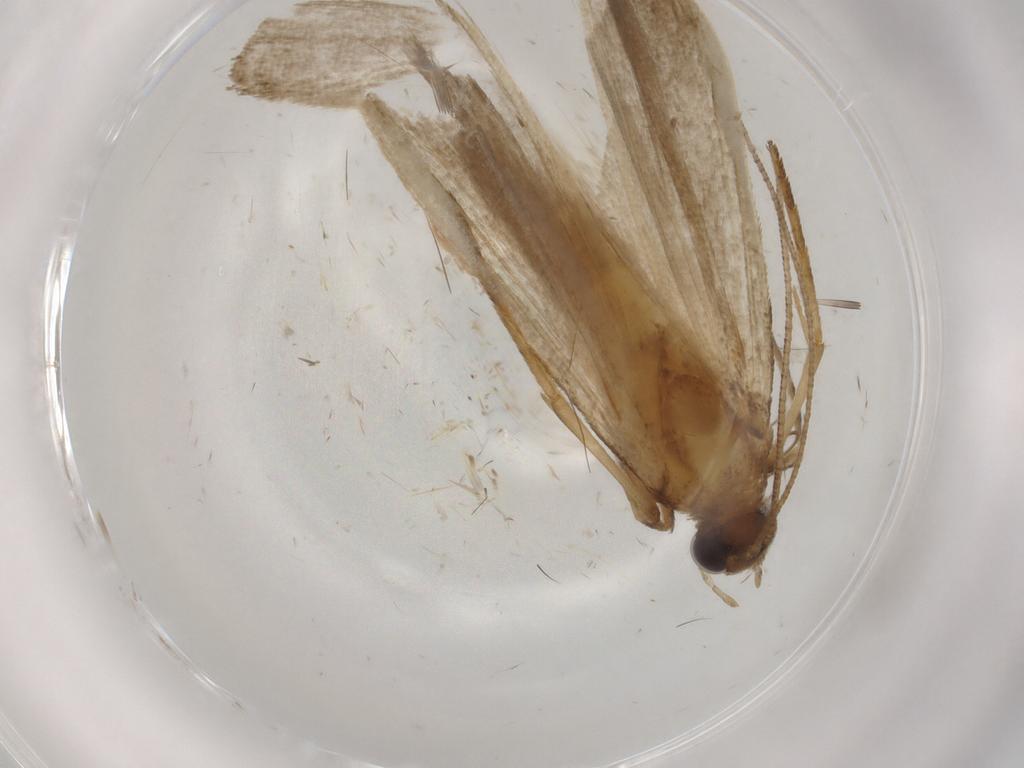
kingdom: Animalia
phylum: Arthropoda
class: Insecta
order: Lepidoptera
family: Noctuidae
